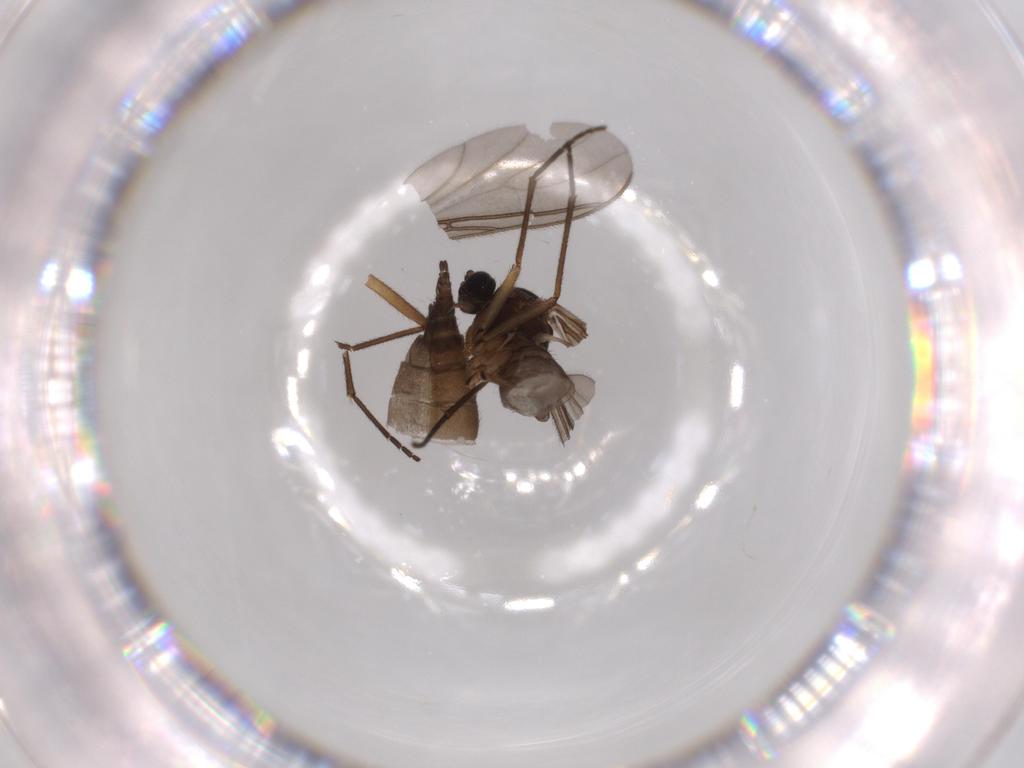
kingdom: Animalia
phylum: Arthropoda
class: Insecta
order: Diptera
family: Sciaridae
